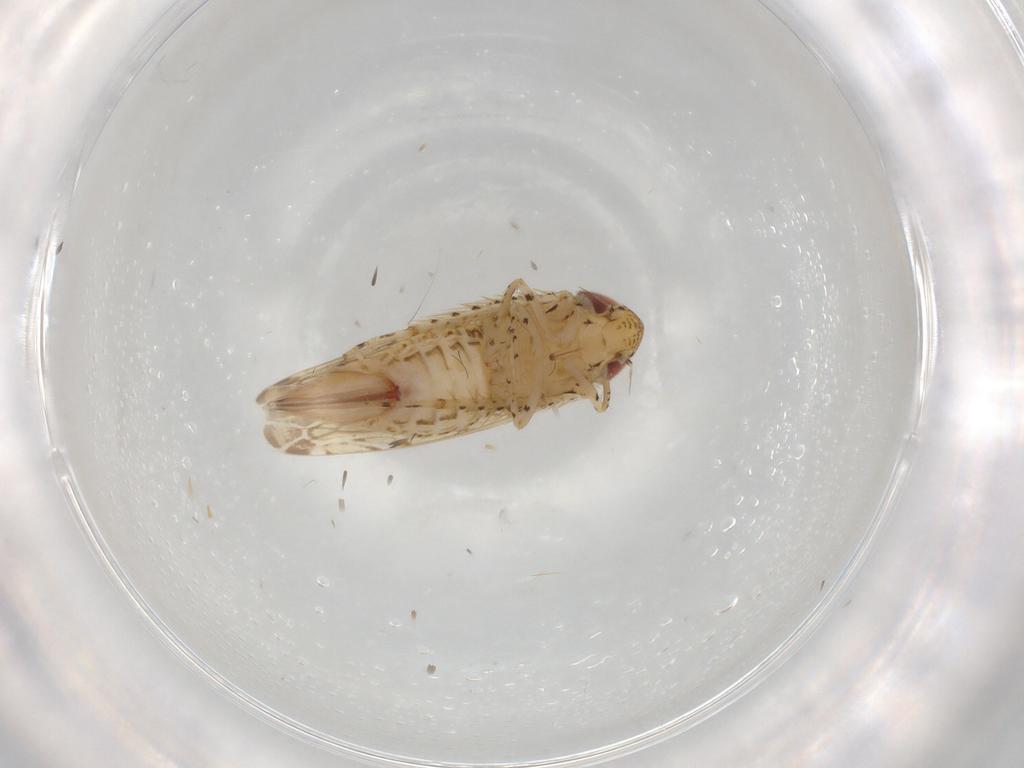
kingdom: Animalia
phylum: Arthropoda
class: Insecta
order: Hemiptera
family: Cicadellidae
